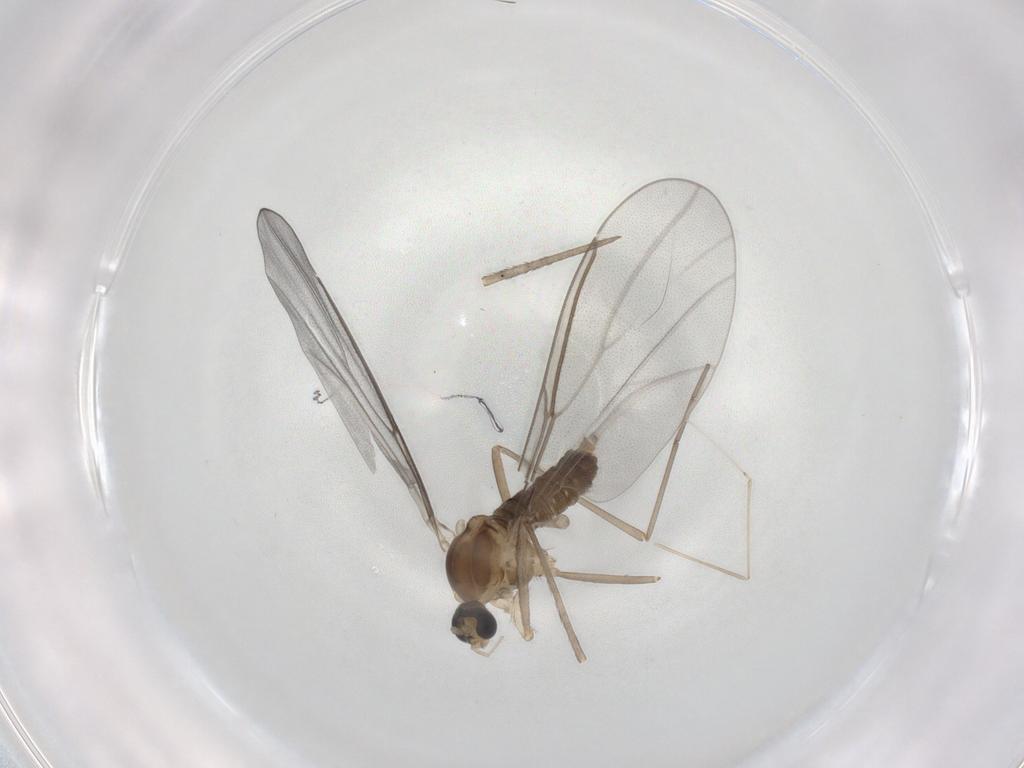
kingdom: Animalia
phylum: Arthropoda
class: Insecta
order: Diptera
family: Cecidomyiidae
